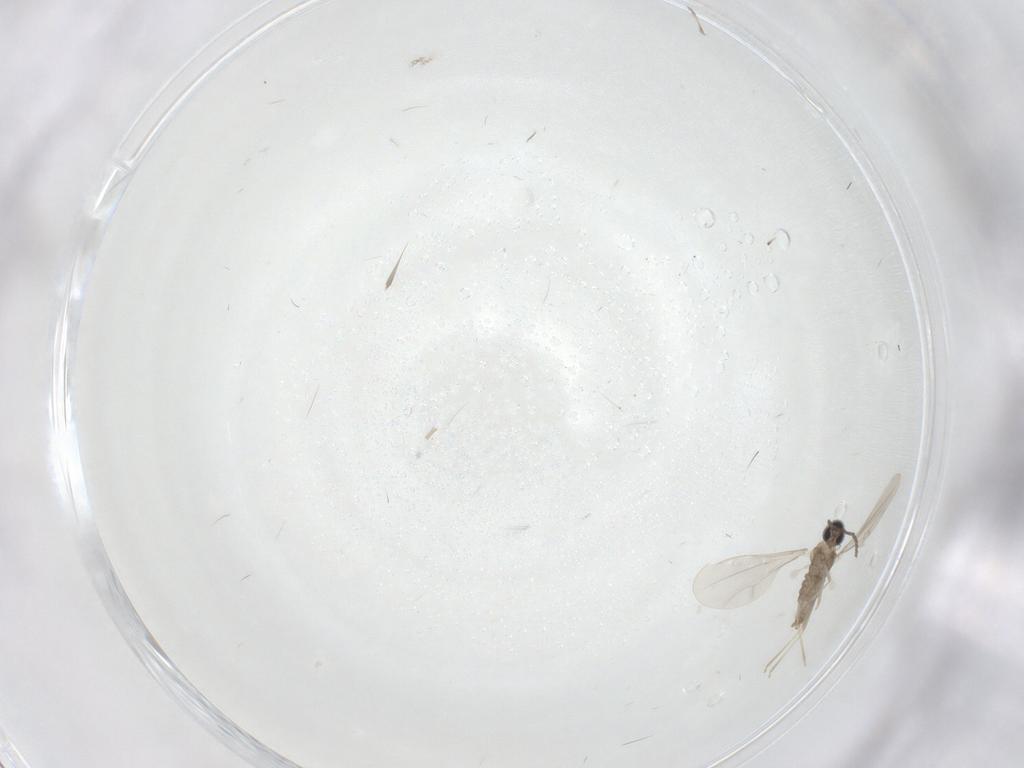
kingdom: Animalia
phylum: Arthropoda
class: Insecta
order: Diptera
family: Cecidomyiidae
